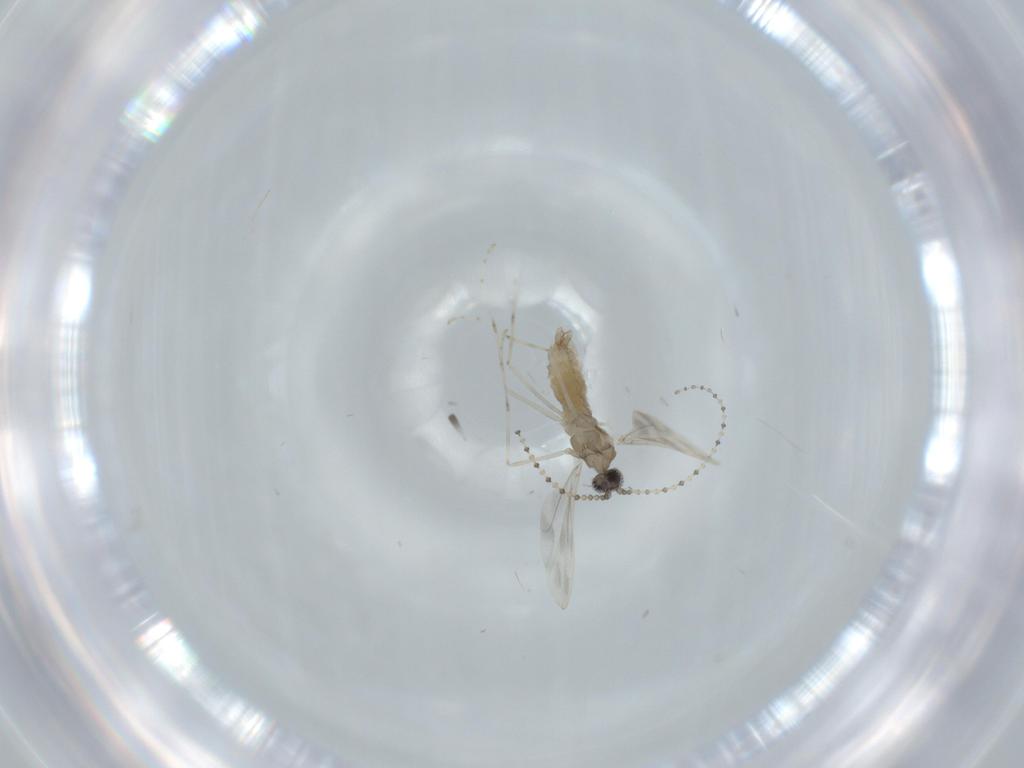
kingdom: Animalia
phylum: Arthropoda
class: Insecta
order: Diptera
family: Cecidomyiidae
